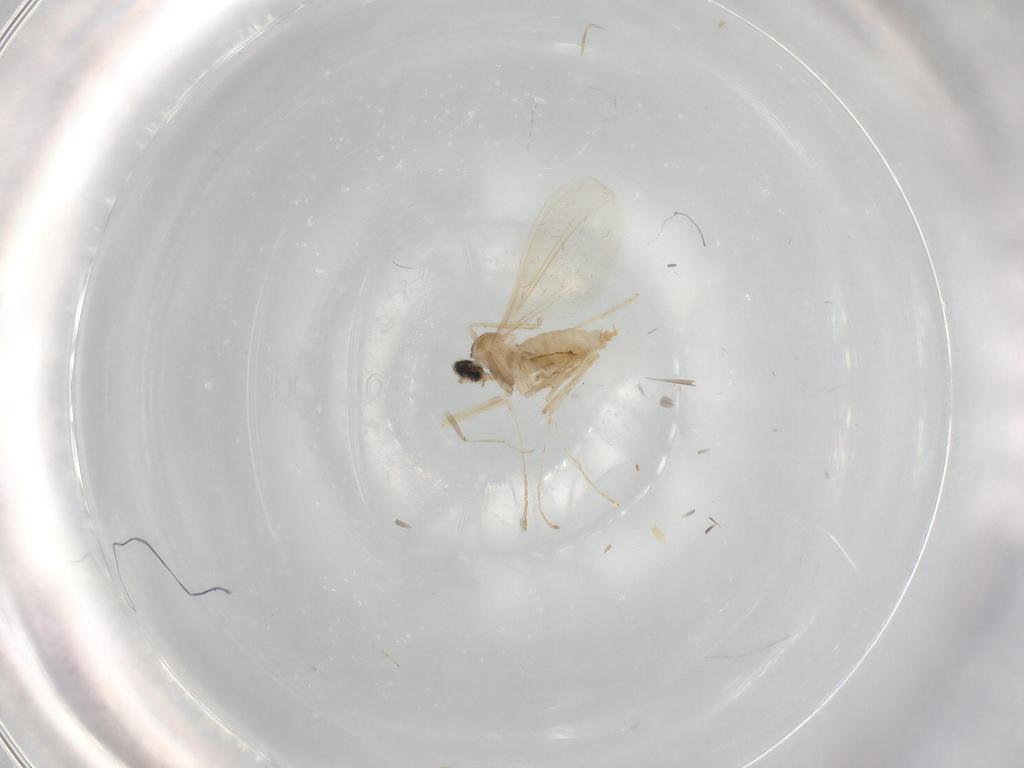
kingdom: Animalia
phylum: Arthropoda
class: Insecta
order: Diptera
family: Cecidomyiidae
